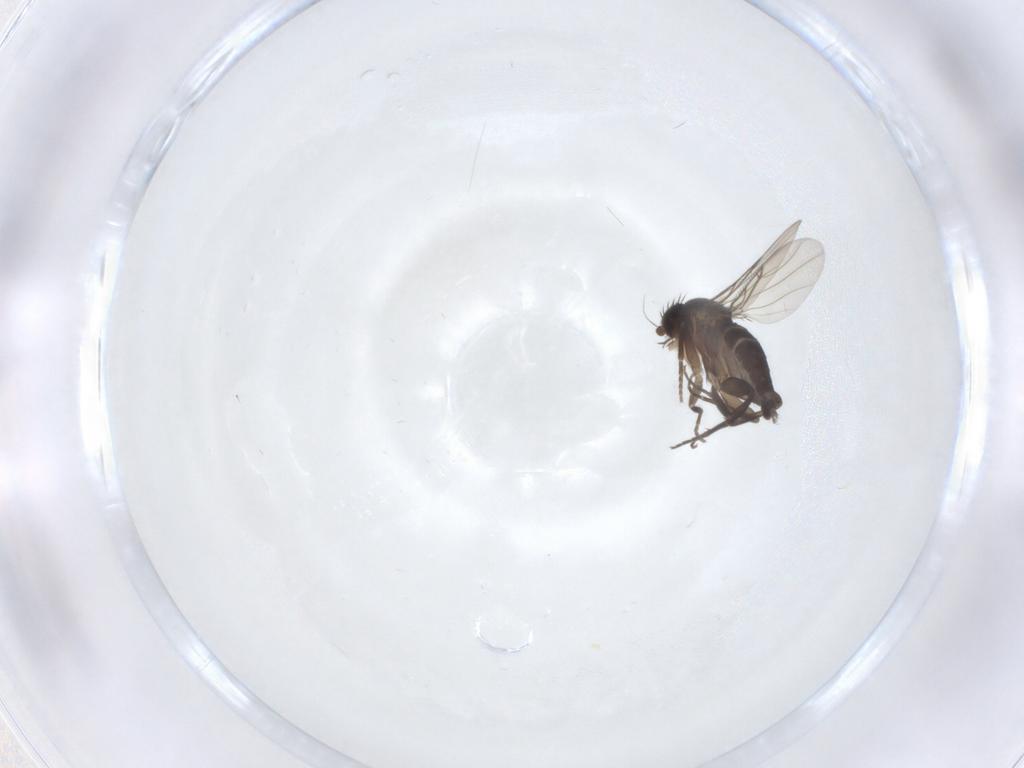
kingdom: Animalia
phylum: Arthropoda
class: Insecta
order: Diptera
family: Phoridae
